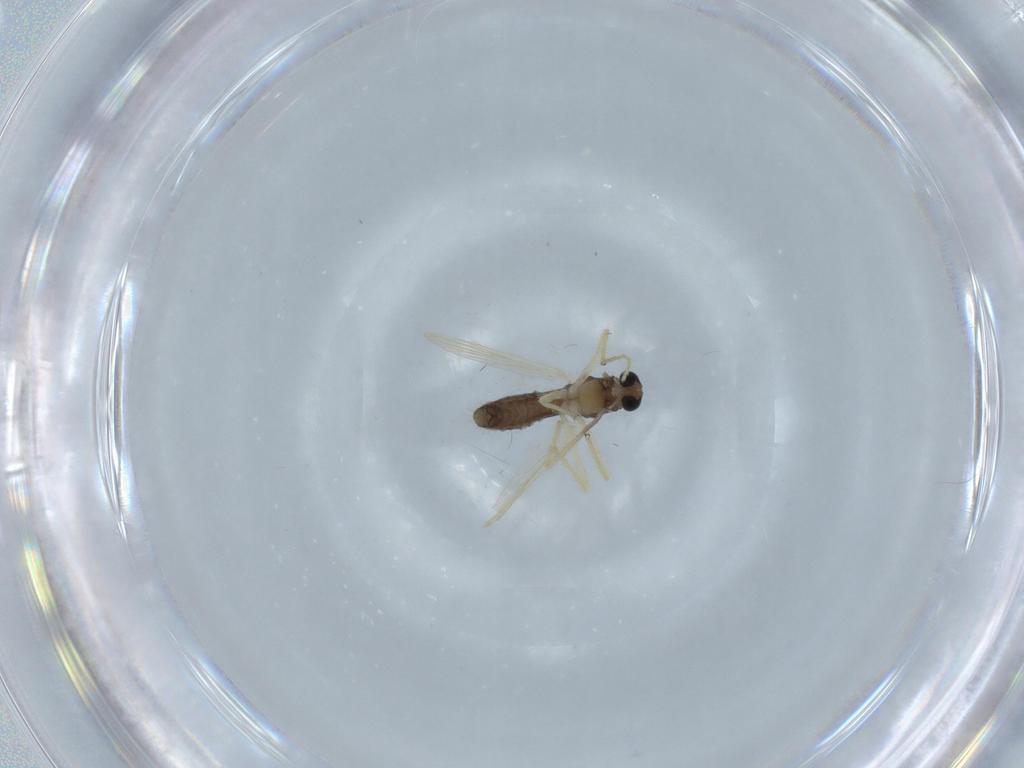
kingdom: Animalia
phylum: Arthropoda
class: Insecta
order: Diptera
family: Chironomidae
